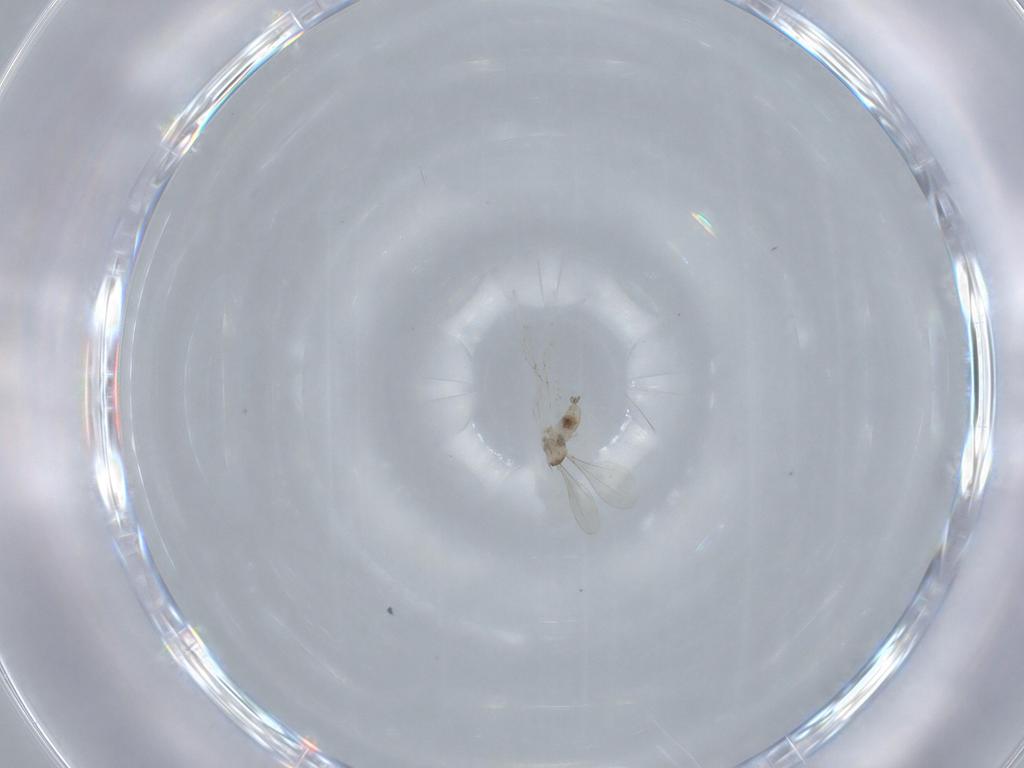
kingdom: Animalia
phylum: Arthropoda
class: Insecta
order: Diptera
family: Cecidomyiidae
